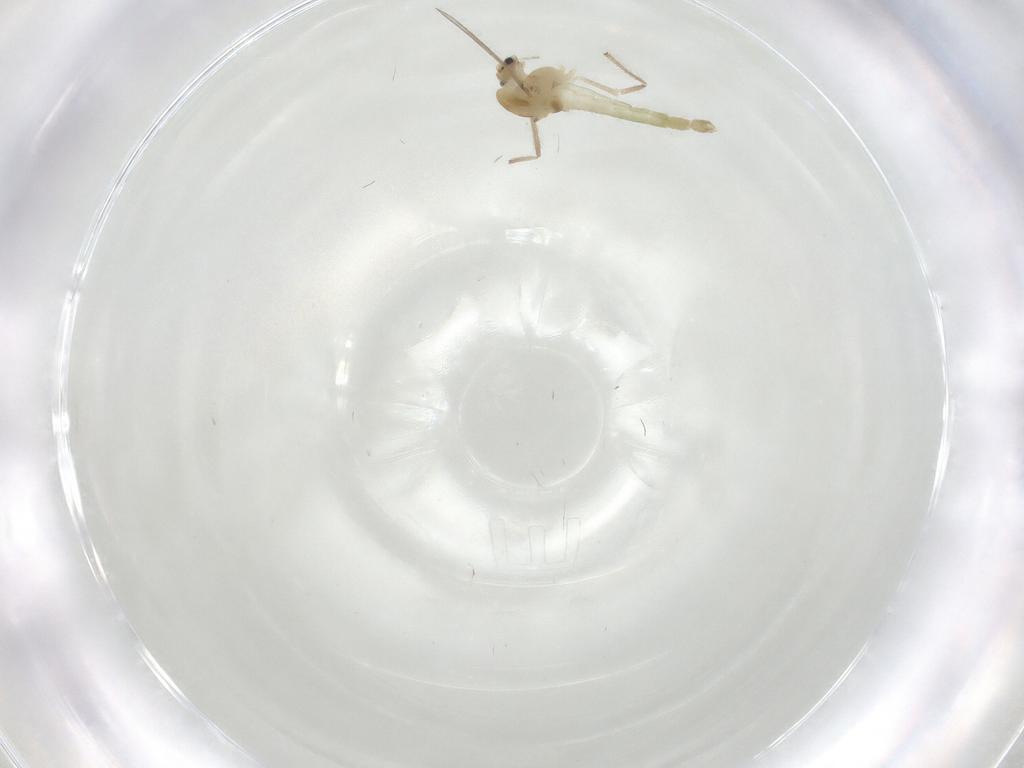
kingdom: Animalia
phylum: Arthropoda
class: Insecta
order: Diptera
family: Chironomidae
